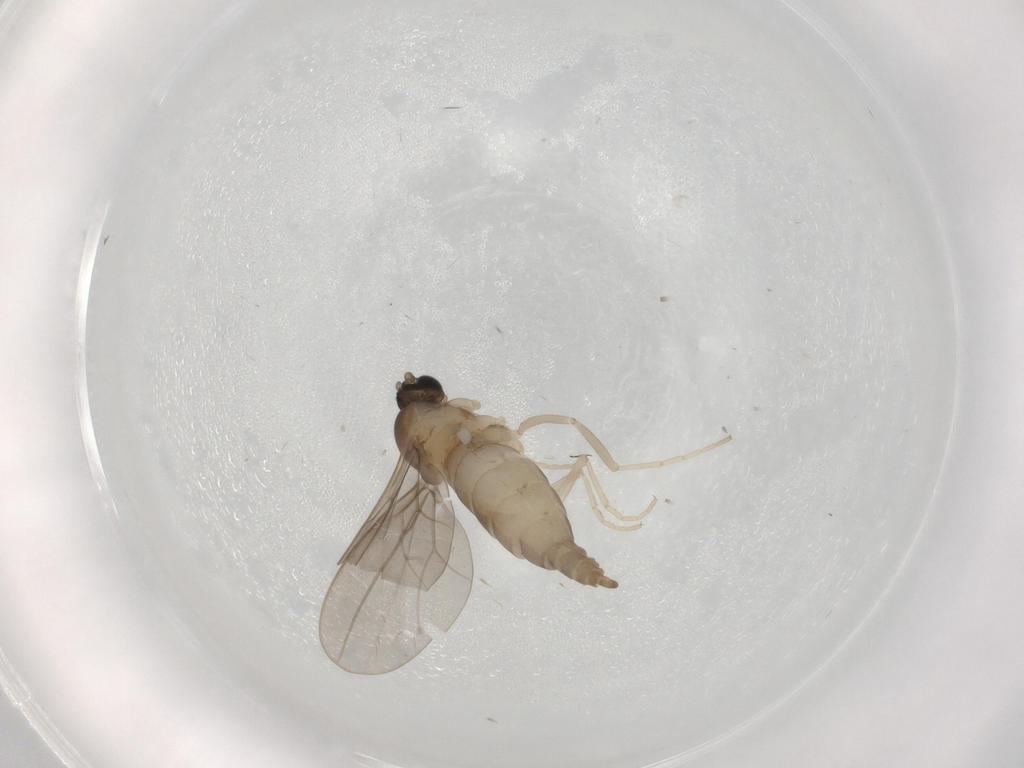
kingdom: Animalia
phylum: Arthropoda
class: Insecta
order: Diptera
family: Cecidomyiidae
